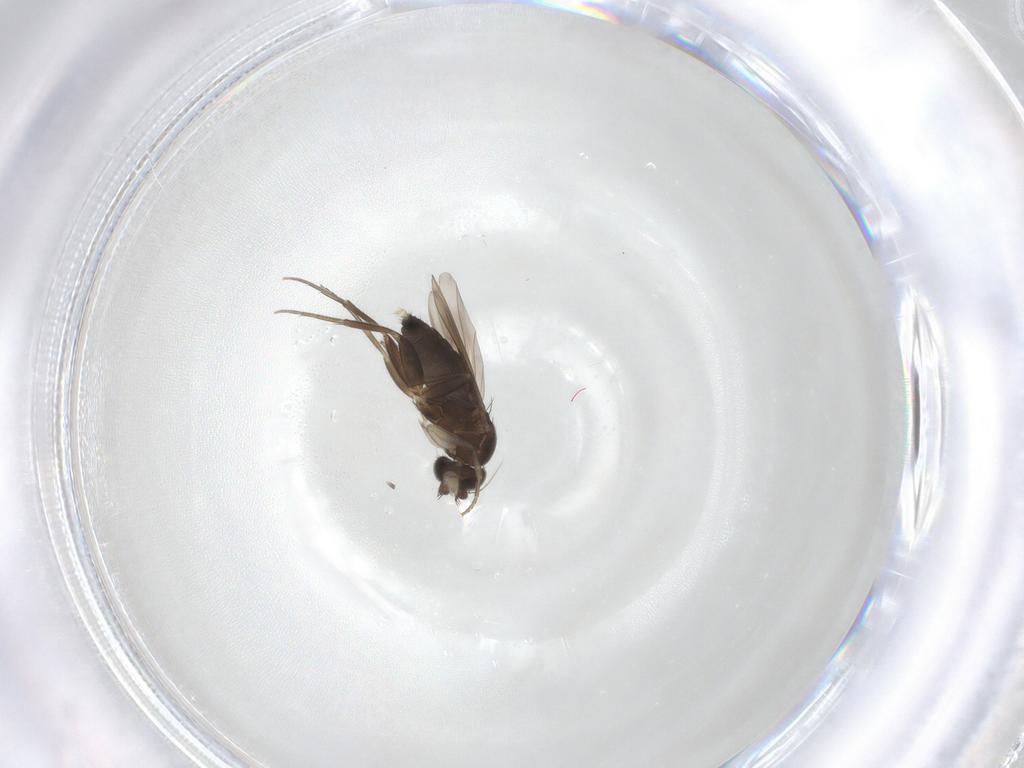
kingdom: Animalia
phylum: Arthropoda
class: Insecta
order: Diptera
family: Phoridae
